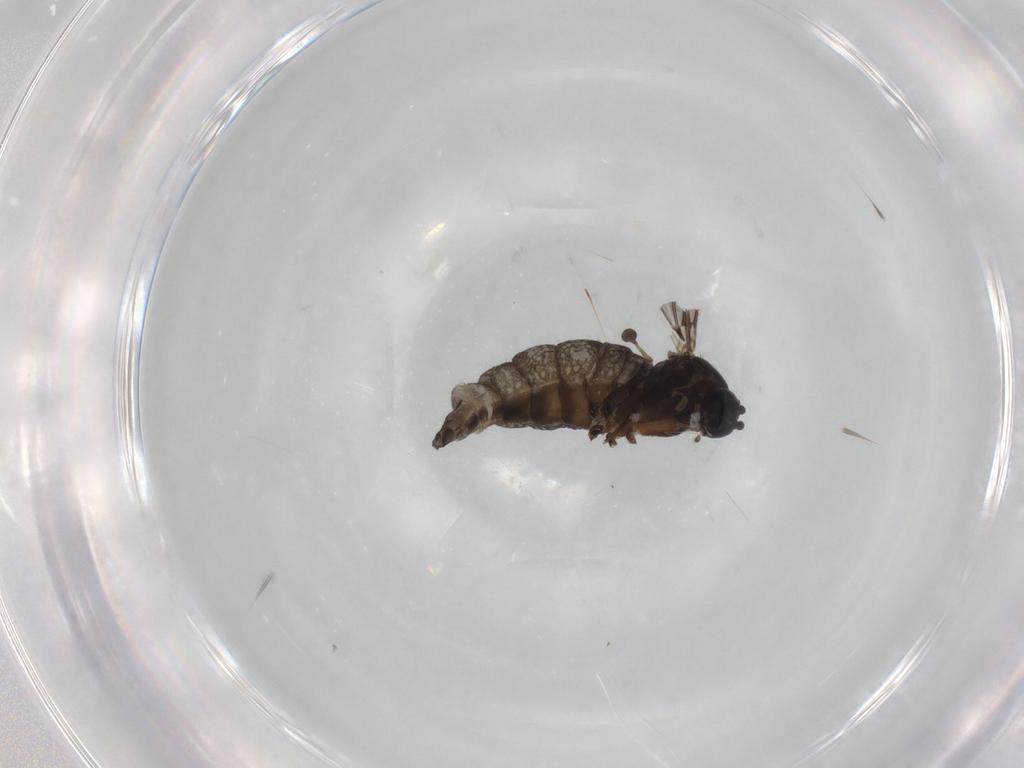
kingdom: Animalia
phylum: Arthropoda
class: Insecta
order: Diptera
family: Sciaridae
